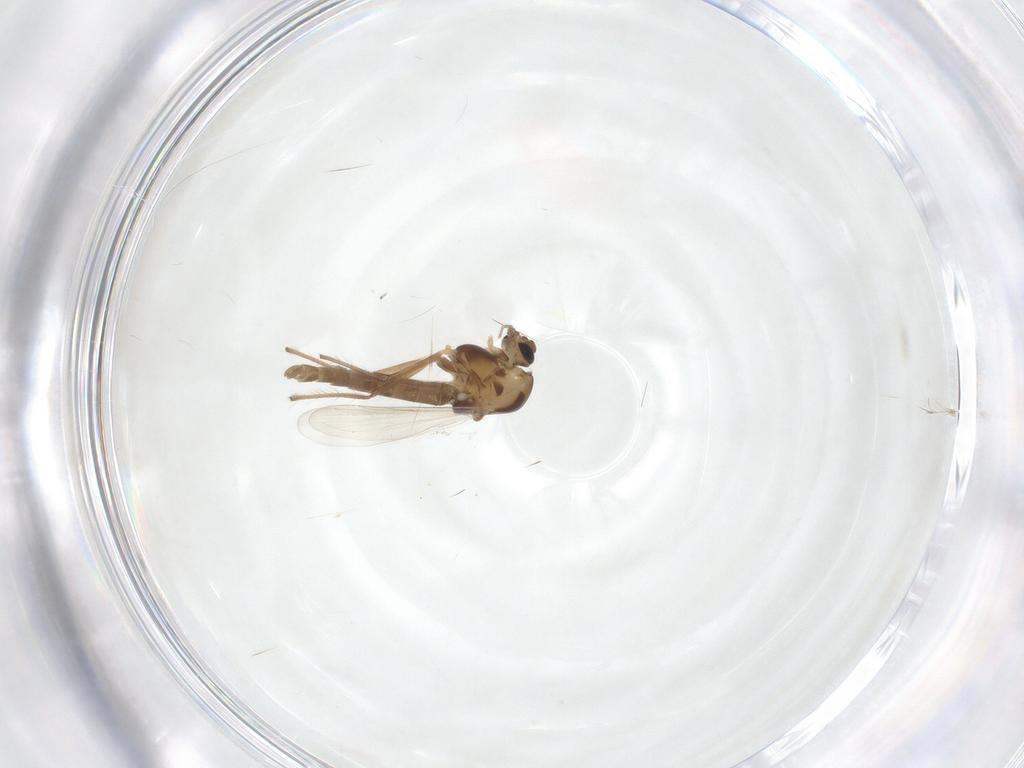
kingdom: Animalia
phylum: Arthropoda
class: Insecta
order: Diptera
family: Chironomidae
